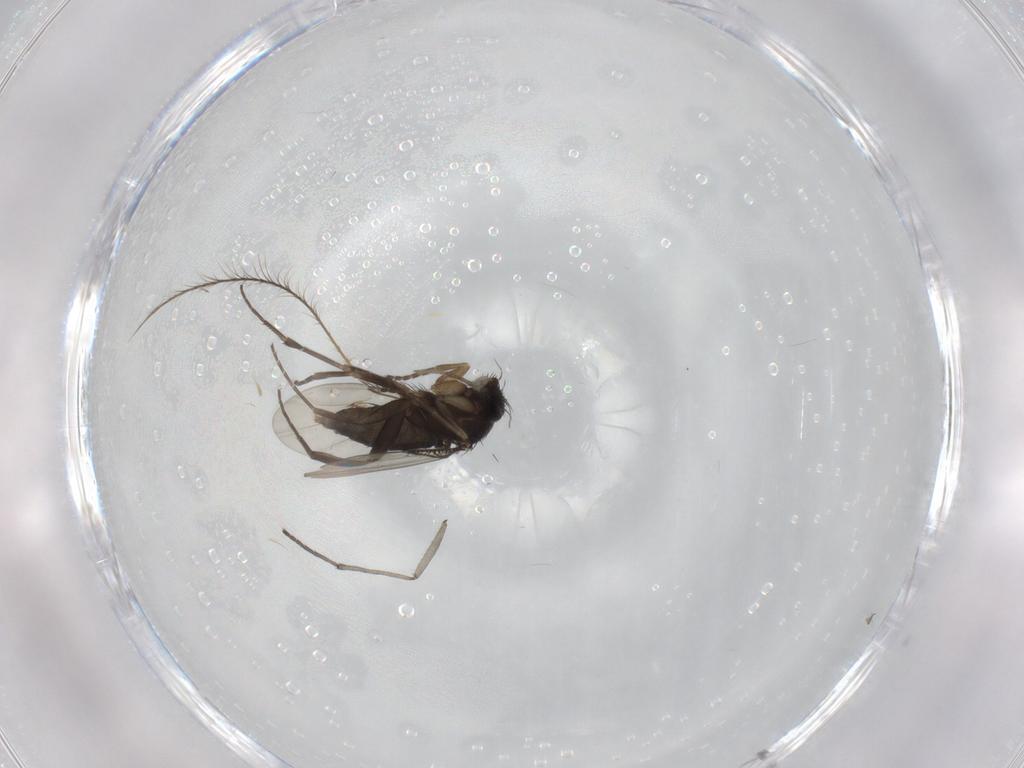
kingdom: Animalia
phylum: Arthropoda
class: Insecta
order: Diptera
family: Phoridae
